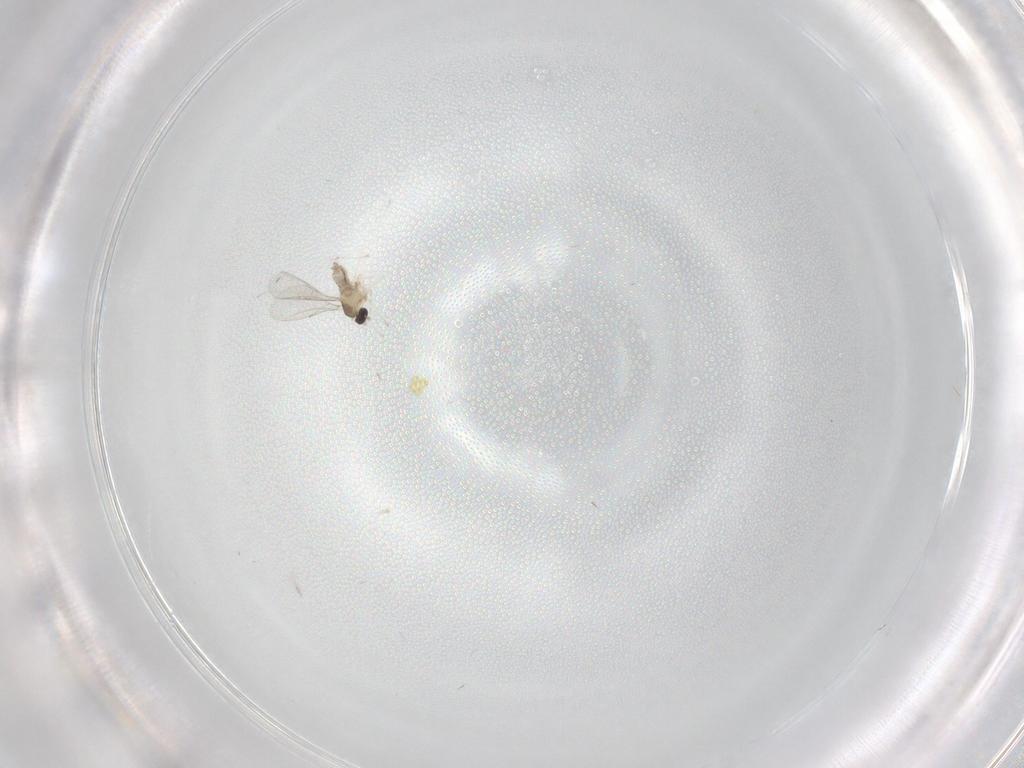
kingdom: Animalia
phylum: Arthropoda
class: Insecta
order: Diptera
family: Cecidomyiidae
